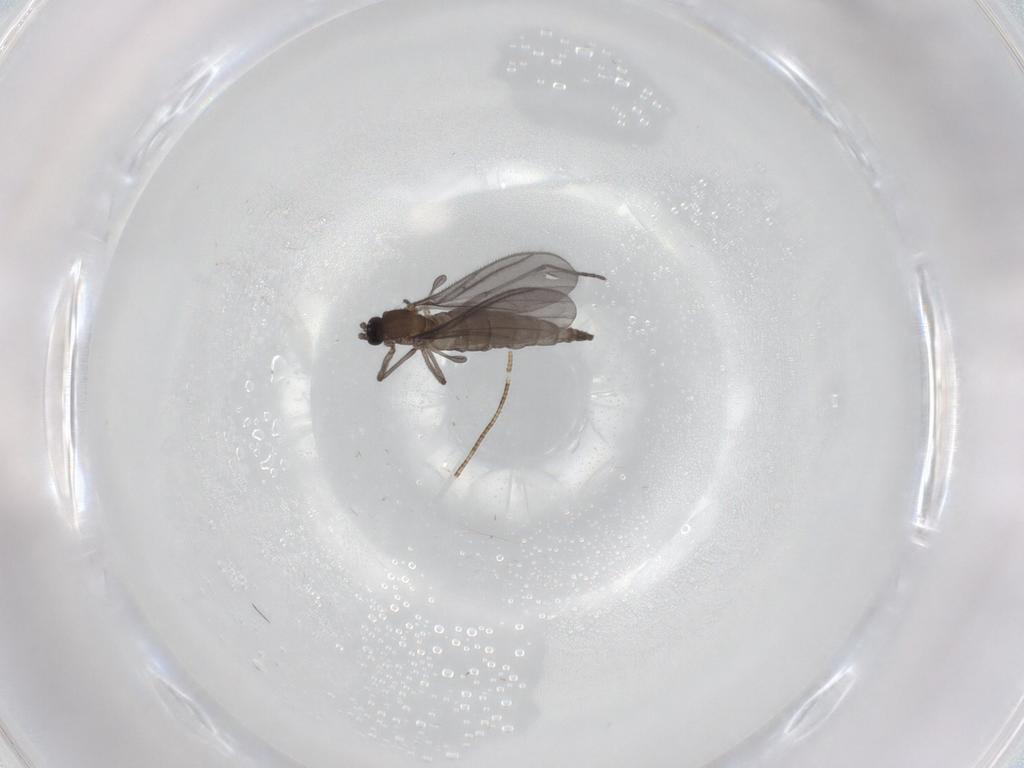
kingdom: Animalia
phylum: Arthropoda
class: Insecta
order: Diptera
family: Sciaridae
